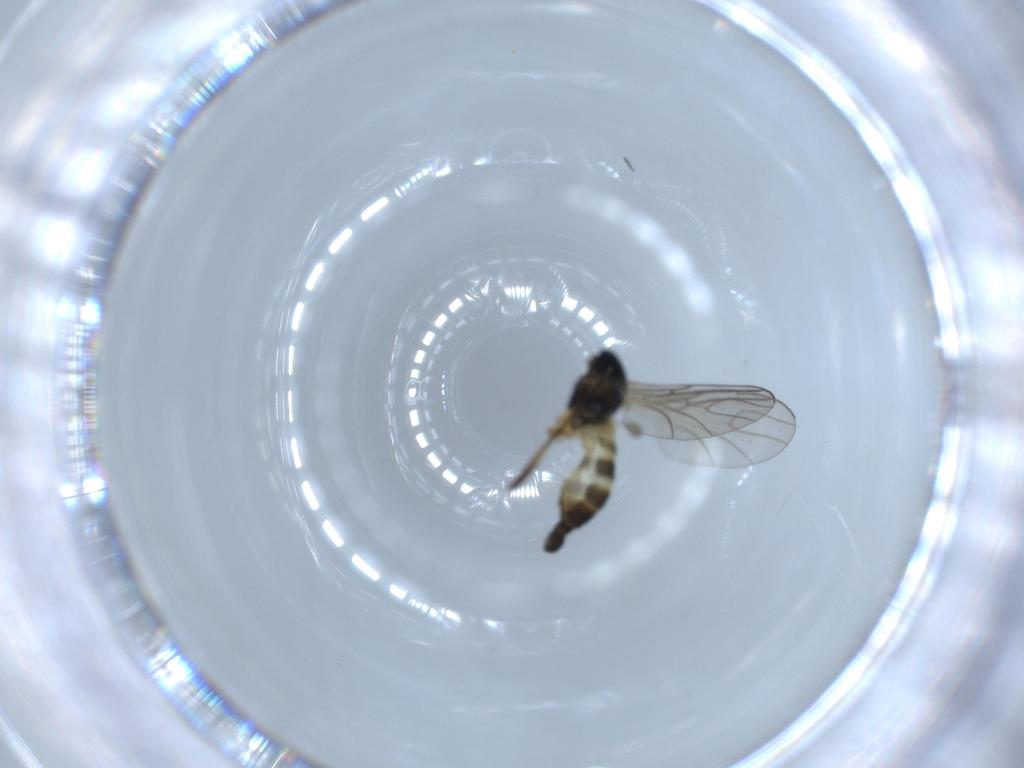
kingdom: Animalia
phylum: Arthropoda
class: Insecta
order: Diptera
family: Sciaridae
